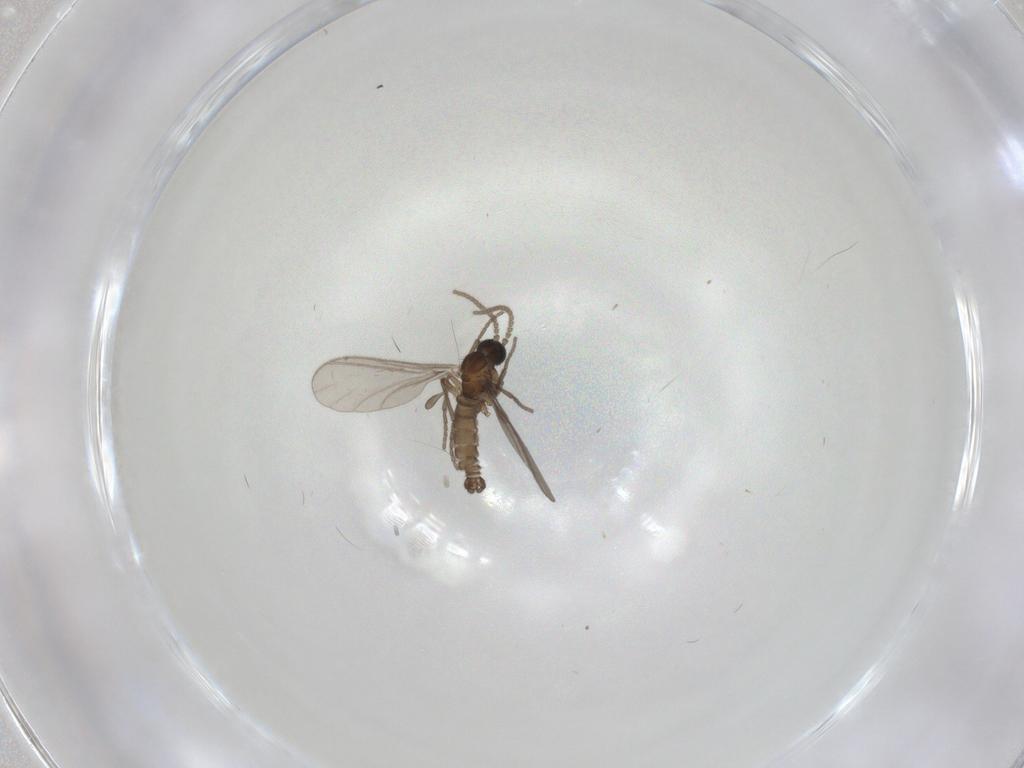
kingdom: Animalia
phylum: Arthropoda
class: Insecta
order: Diptera
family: Sciaridae
